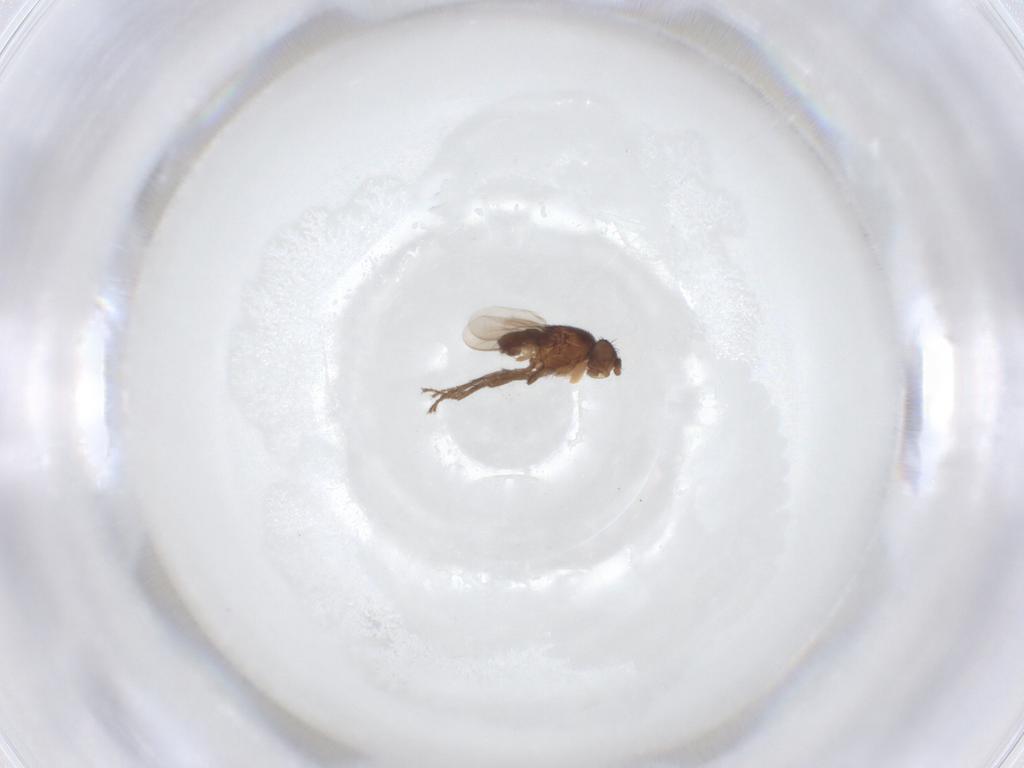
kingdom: Animalia
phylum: Arthropoda
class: Insecta
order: Diptera
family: Sphaeroceridae
